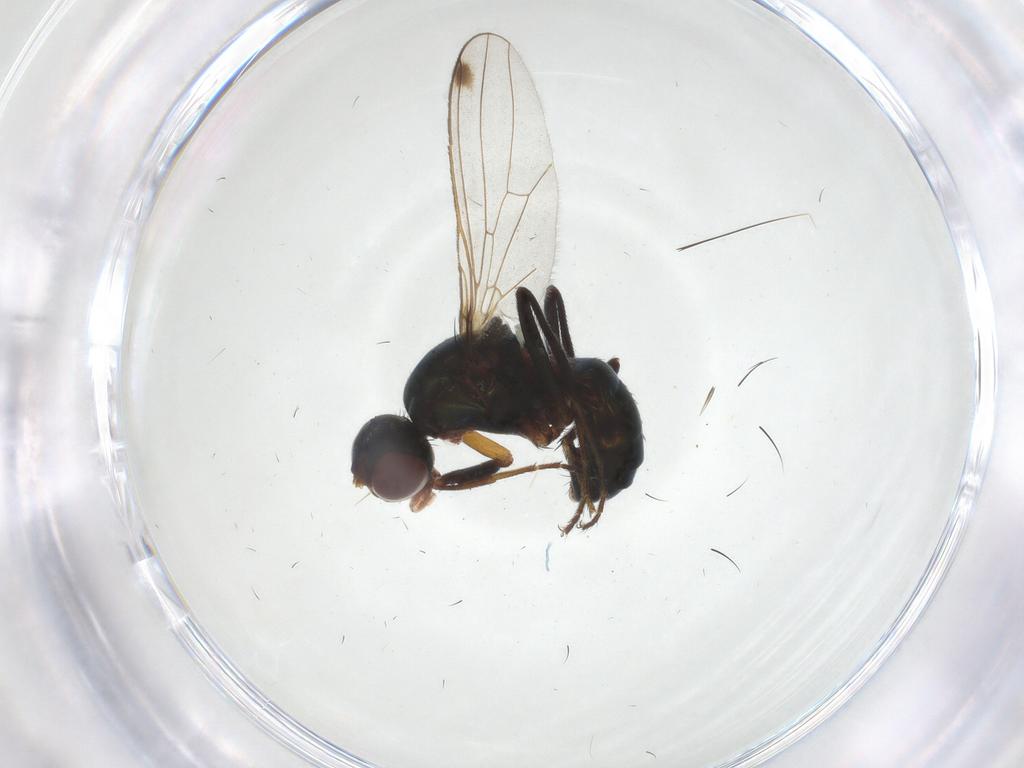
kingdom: Animalia
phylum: Arthropoda
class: Insecta
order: Diptera
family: Sepsidae
